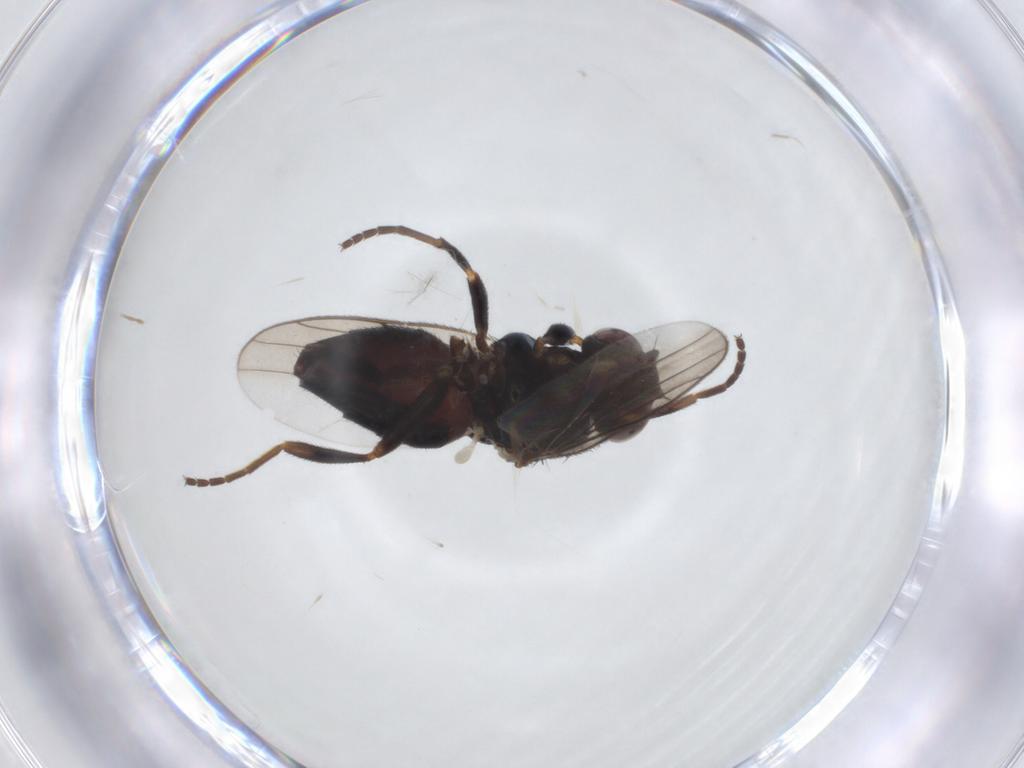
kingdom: Animalia
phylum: Arthropoda
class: Insecta
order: Diptera
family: Chloropidae
